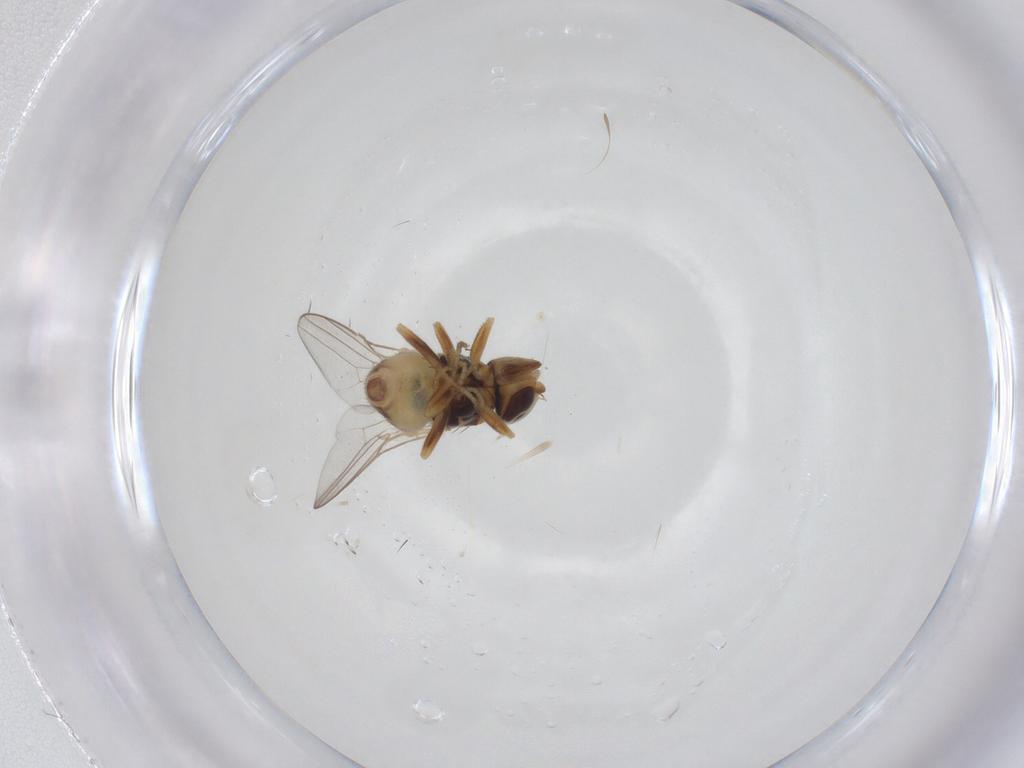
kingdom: Animalia
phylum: Arthropoda
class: Insecta
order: Diptera
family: Chloropidae
